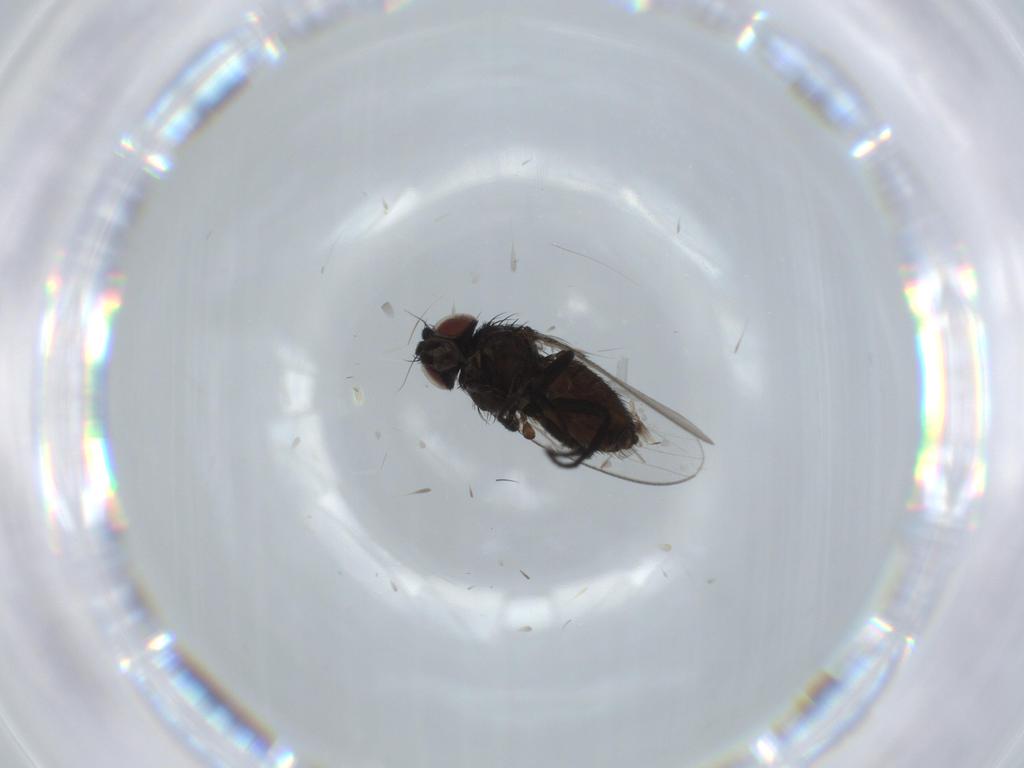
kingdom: Animalia
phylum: Arthropoda
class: Insecta
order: Diptera
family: Milichiidae
